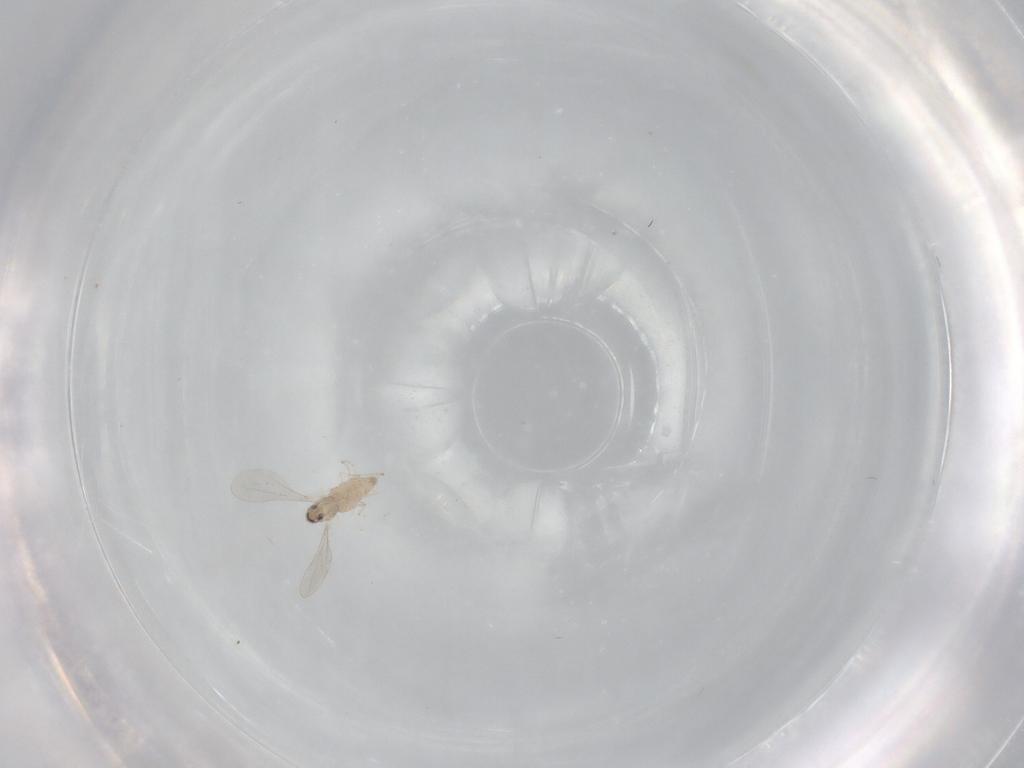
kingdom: Animalia
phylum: Arthropoda
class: Insecta
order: Diptera
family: Cecidomyiidae
